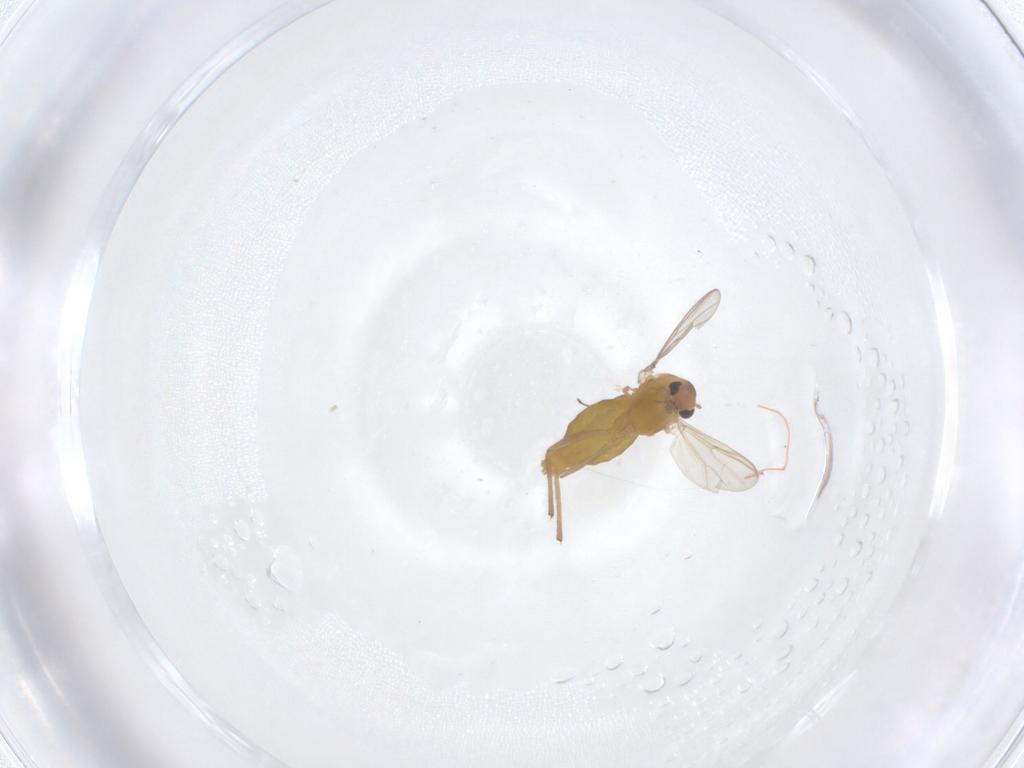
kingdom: Animalia
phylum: Arthropoda
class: Insecta
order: Diptera
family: Chironomidae
